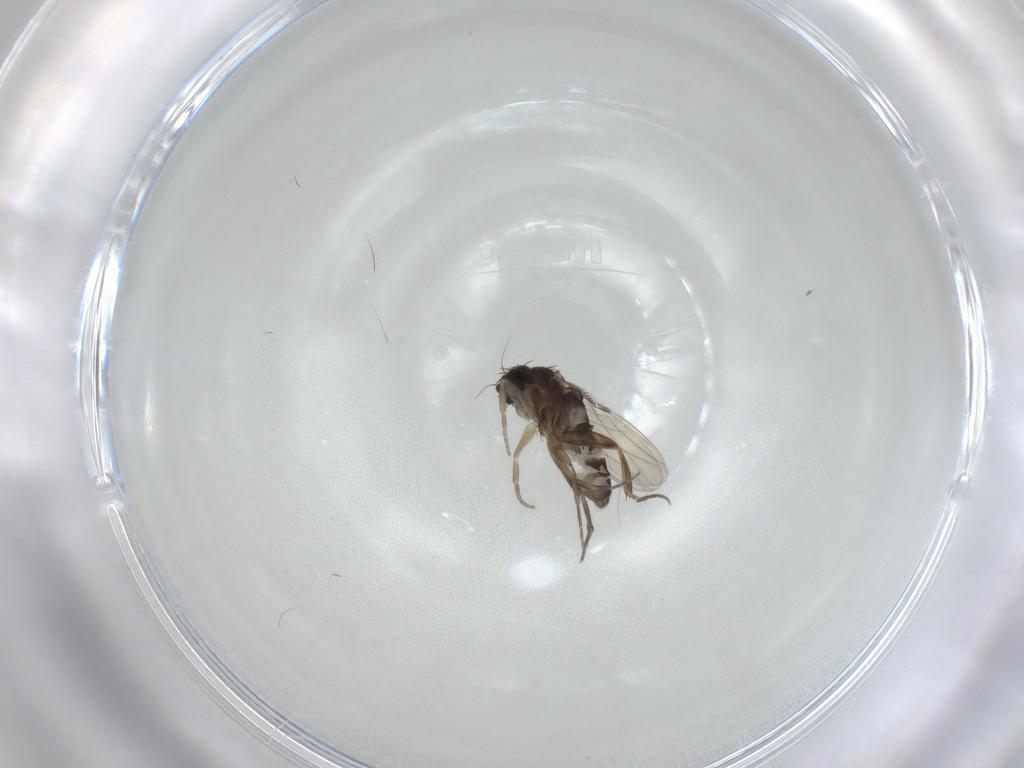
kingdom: Animalia
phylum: Arthropoda
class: Insecta
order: Diptera
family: Ceratopogonidae
